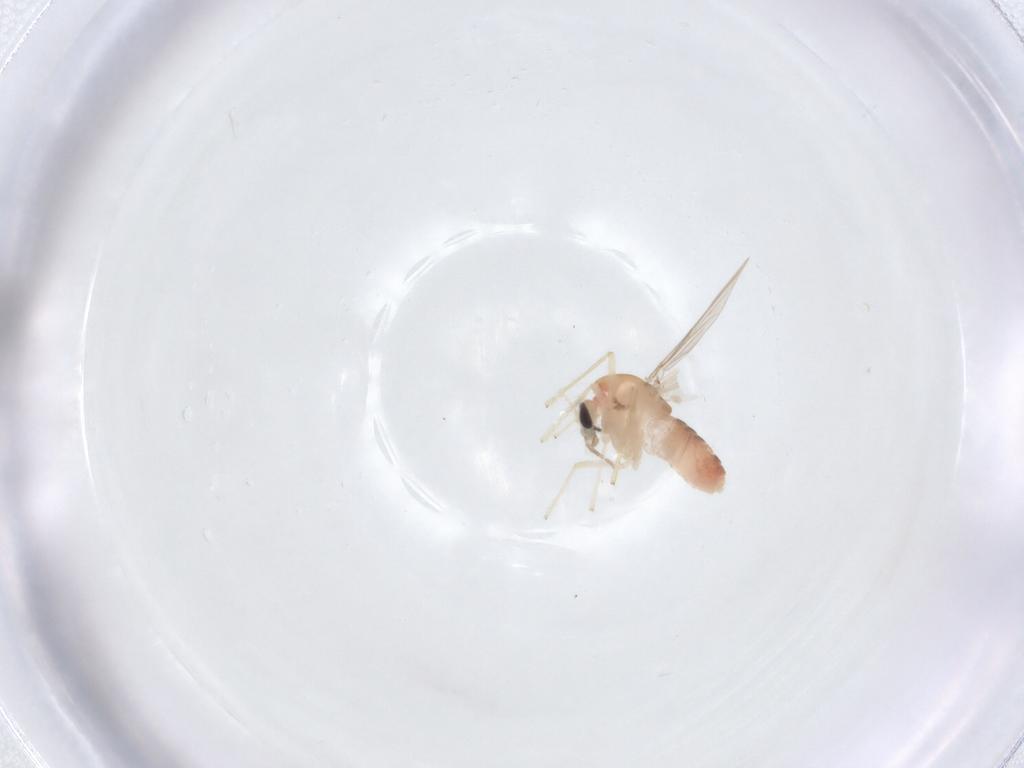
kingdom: Animalia
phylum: Arthropoda
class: Insecta
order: Diptera
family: Chironomidae
